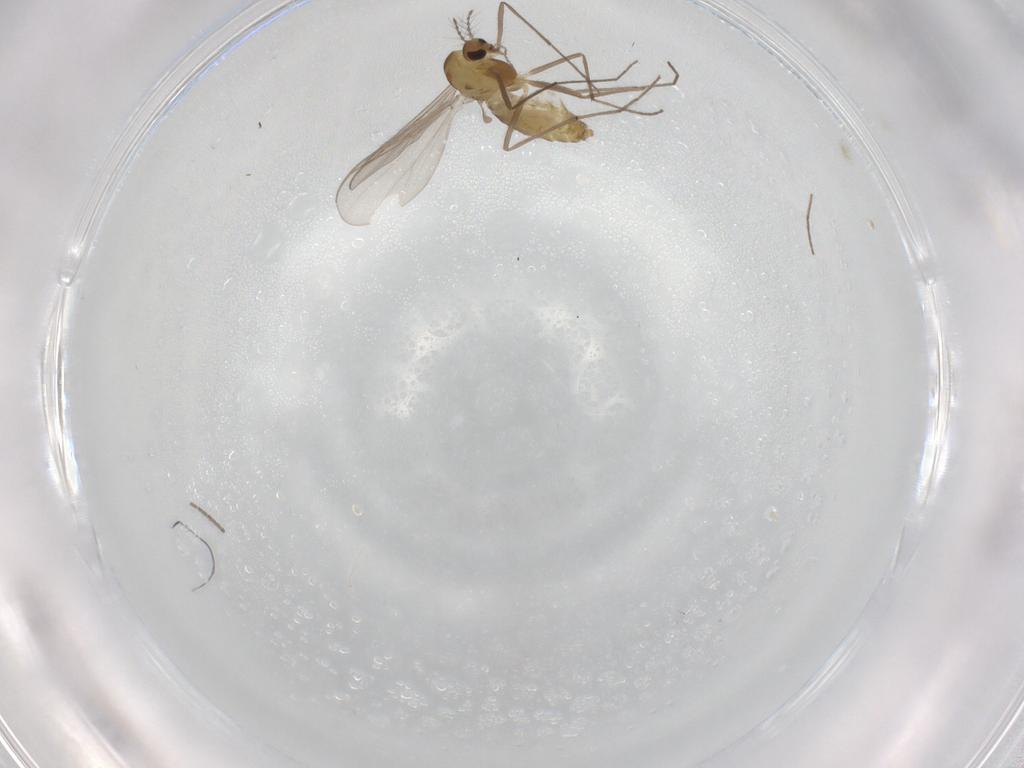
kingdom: Animalia
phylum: Arthropoda
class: Insecta
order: Diptera
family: Chironomidae
